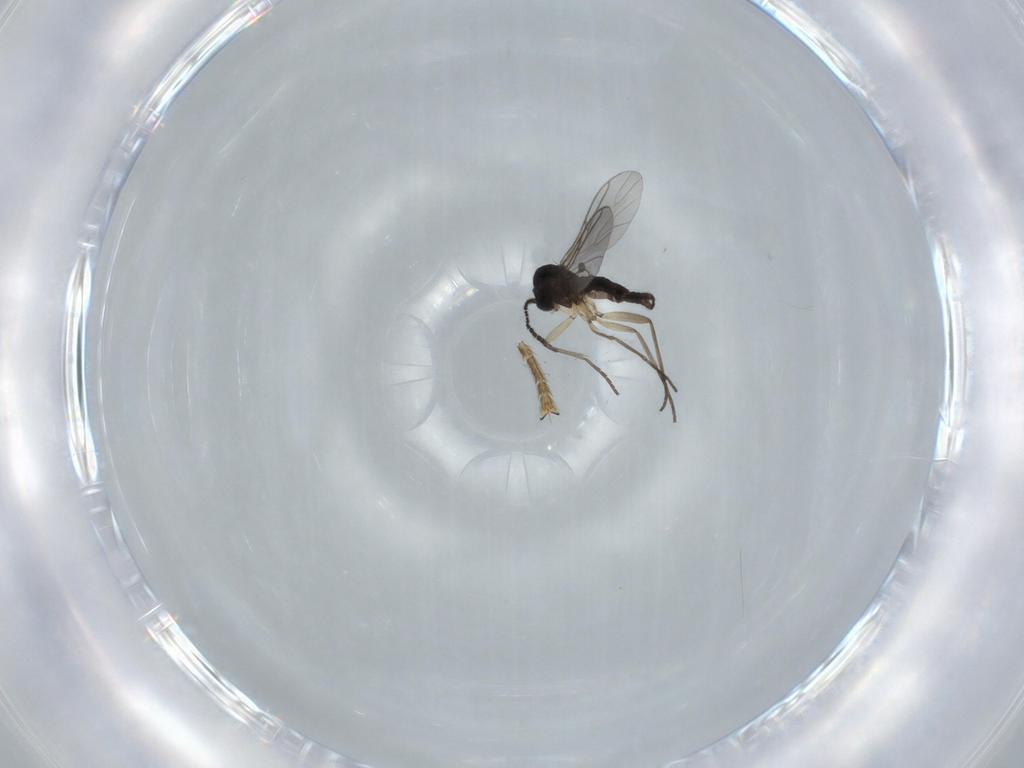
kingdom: Animalia
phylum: Arthropoda
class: Insecta
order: Diptera
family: Sciaridae
